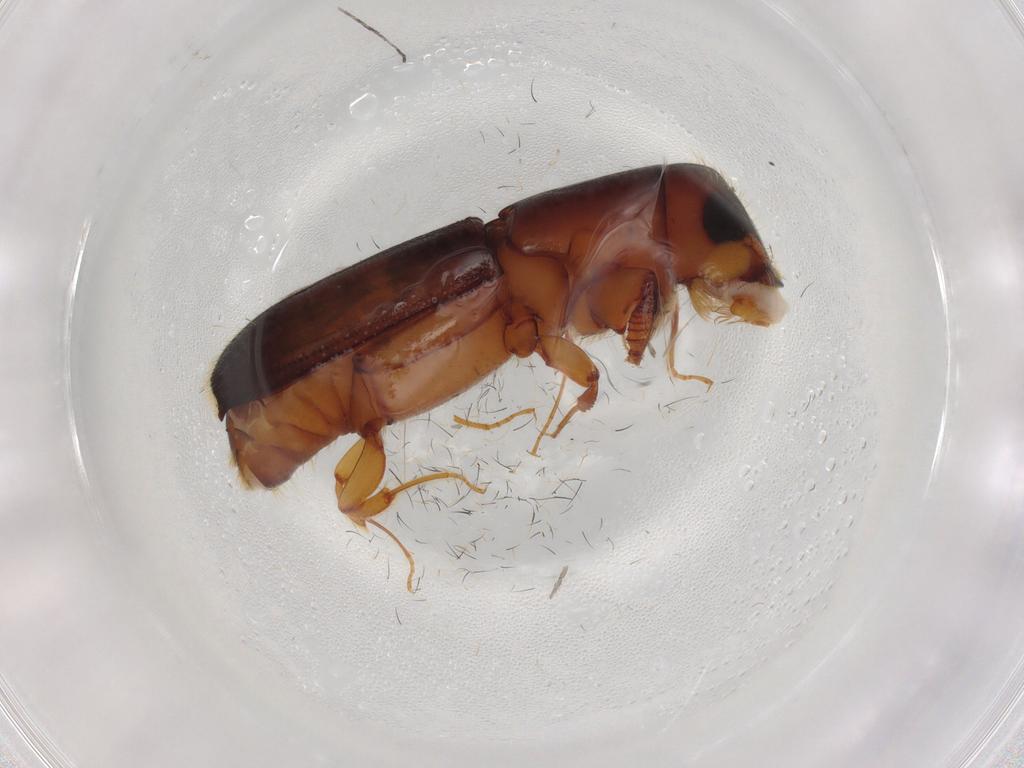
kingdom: Animalia
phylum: Arthropoda
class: Insecta
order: Coleoptera
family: Curculionidae
